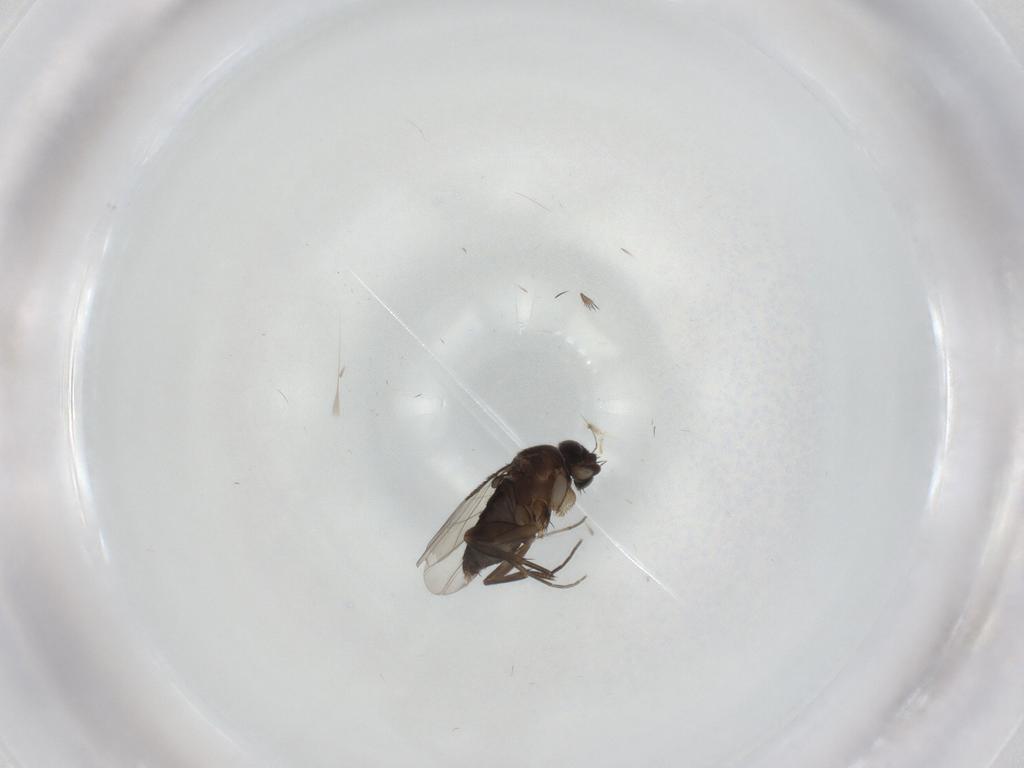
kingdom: Animalia
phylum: Arthropoda
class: Insecta
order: Diptera
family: Phoridae
